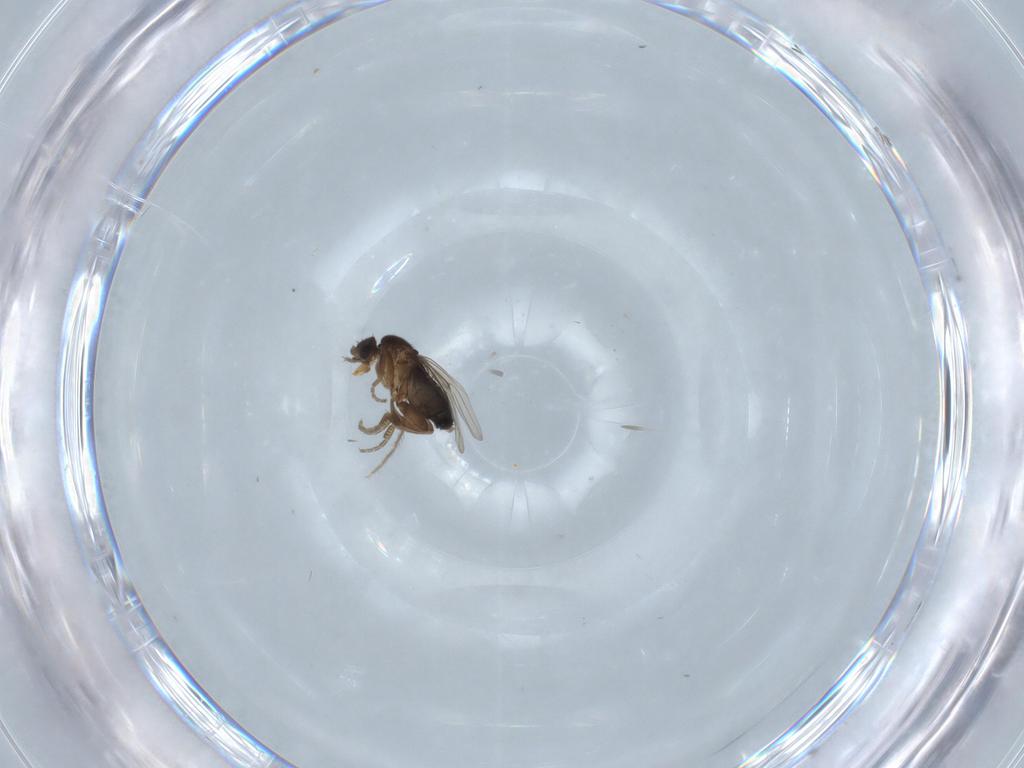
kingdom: Animalia
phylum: Arthropoda
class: Insecta
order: Diptera
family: Phoridae
